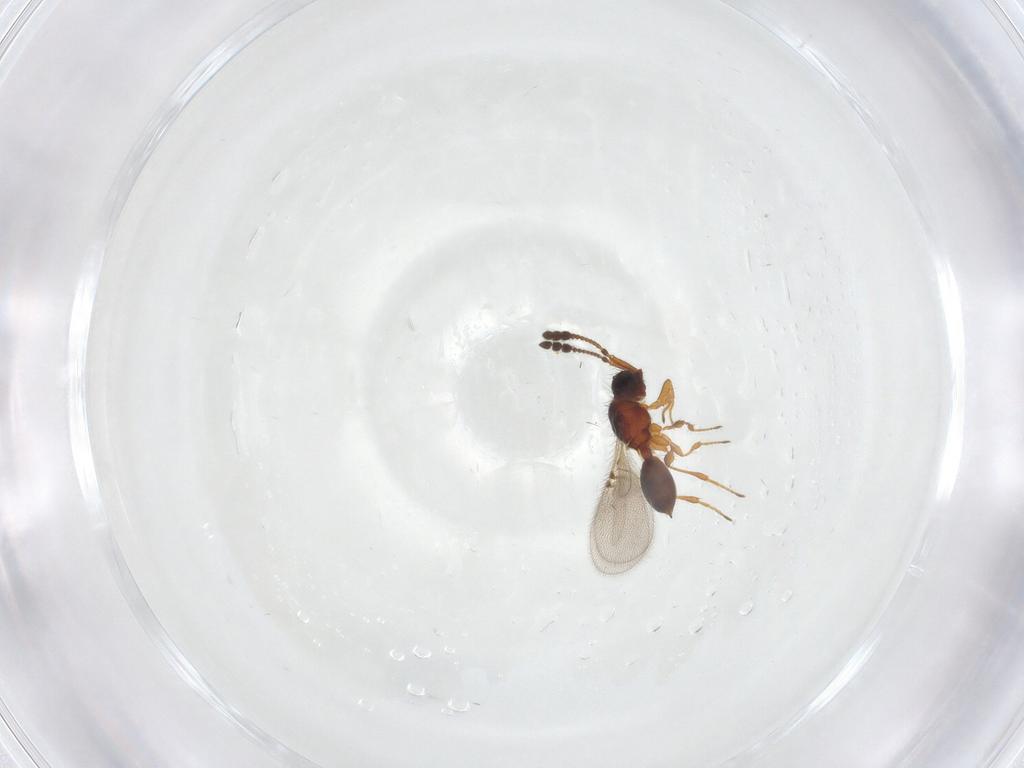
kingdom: Animalia
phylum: Arthropoda
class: Insecta
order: Hymenoptera
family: Diapriidae
